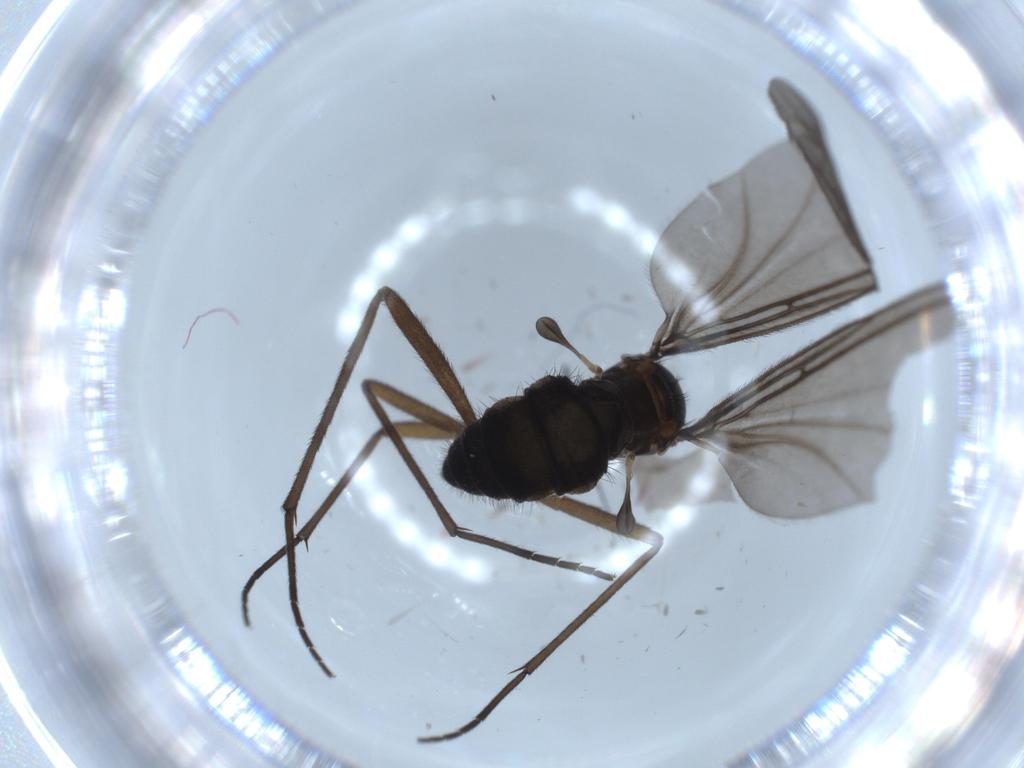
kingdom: Animalia
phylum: Arthropoda
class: Insecta
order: Diptera
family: Sciaridae
